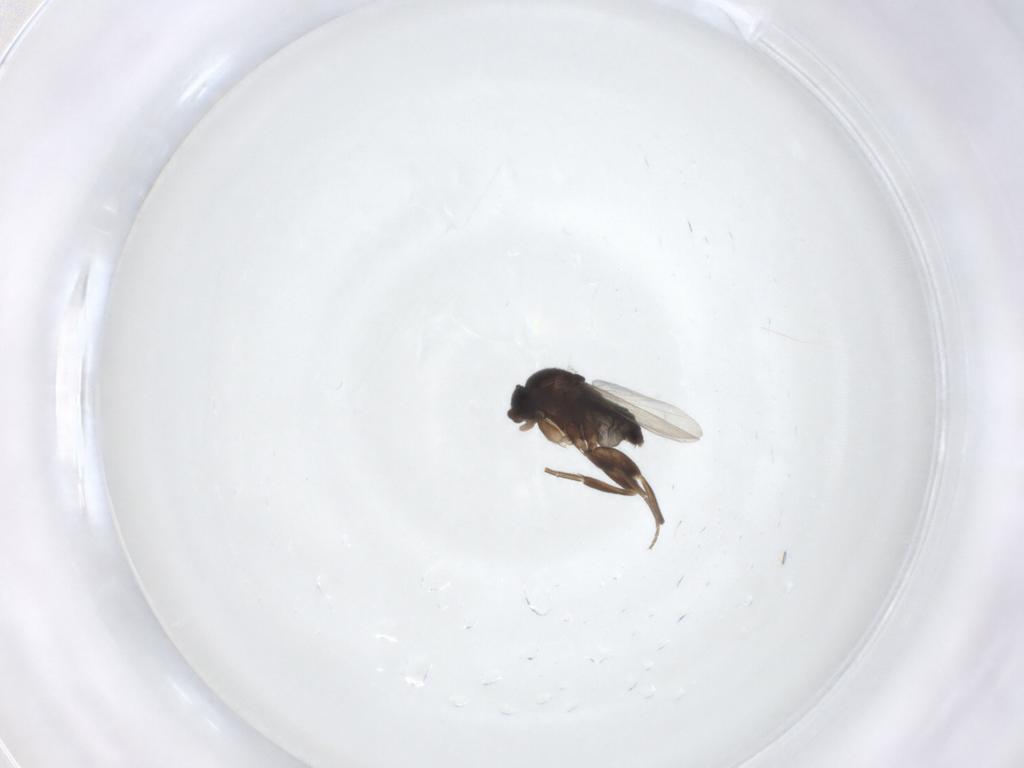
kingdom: Animalia
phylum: Arthropoda
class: Insecta
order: Diptera
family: Phoridae
